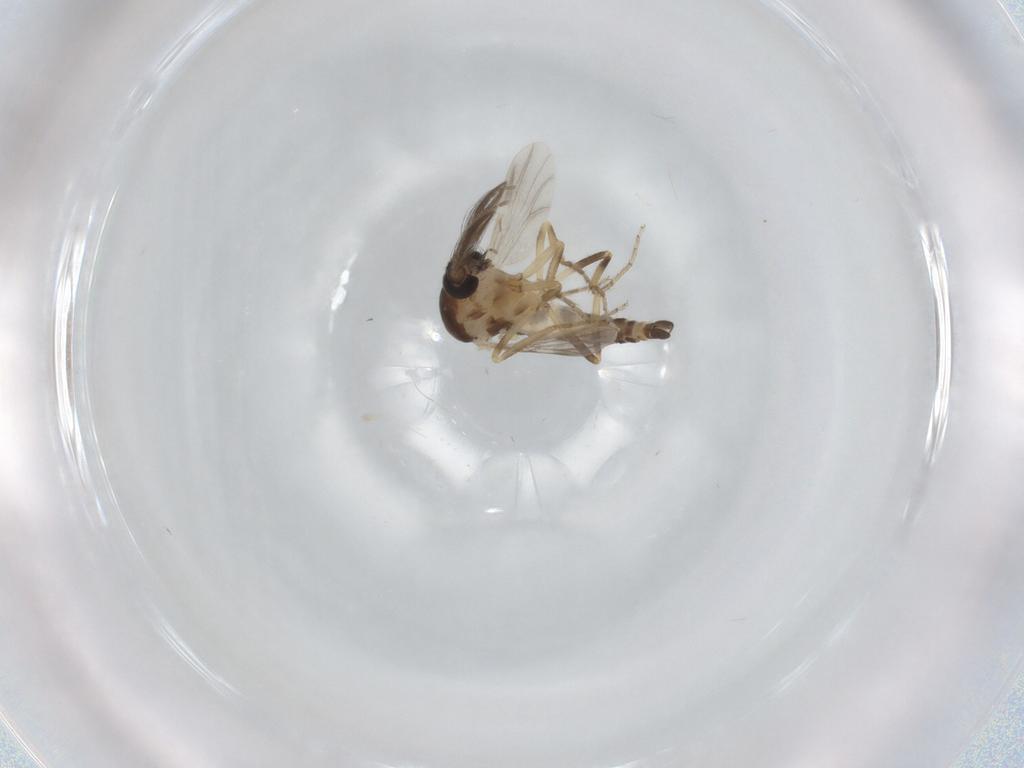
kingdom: Animalia
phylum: Arthropoda
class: Insecta
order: Diptera
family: Ceratopogonidae
